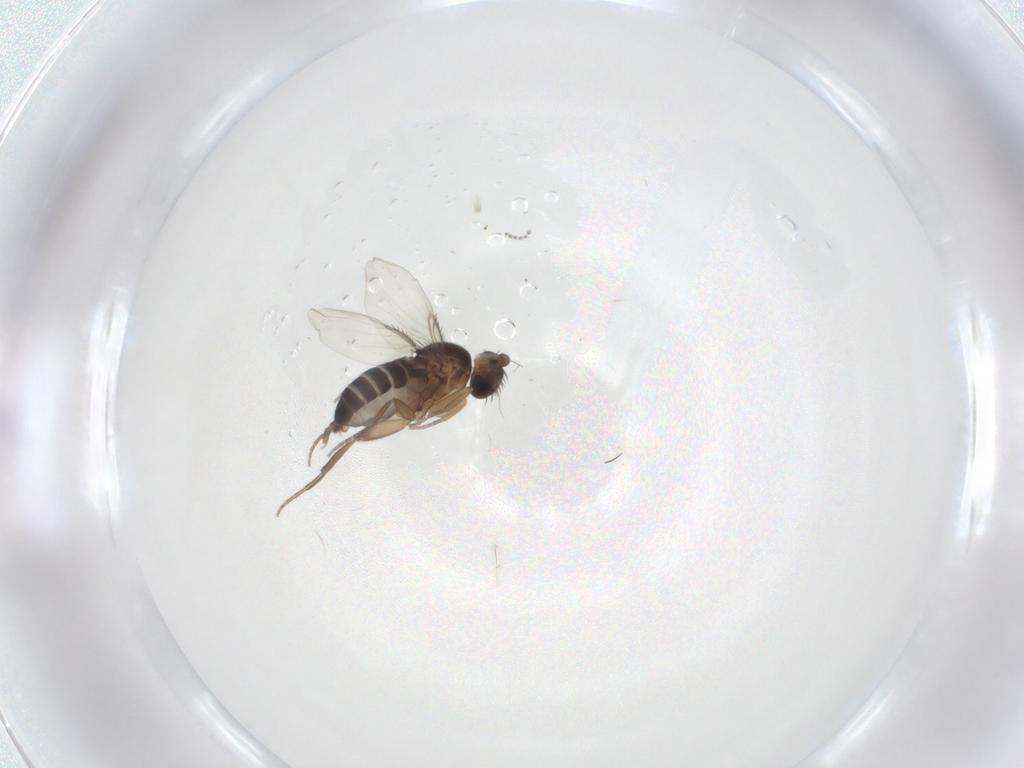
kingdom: Animalia
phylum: Arthropoda
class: Insecta
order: Diptera
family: Phoridae
